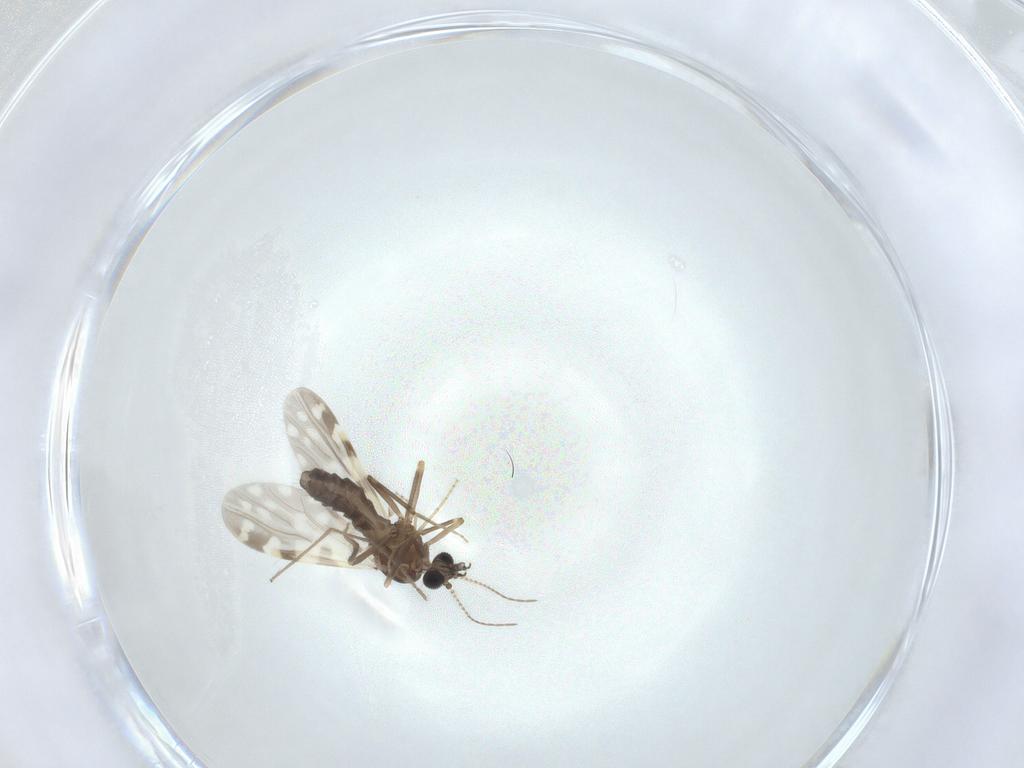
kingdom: Animalia
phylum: Arthropoda
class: Insecta
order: Diptera
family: Ceratopogonidae
